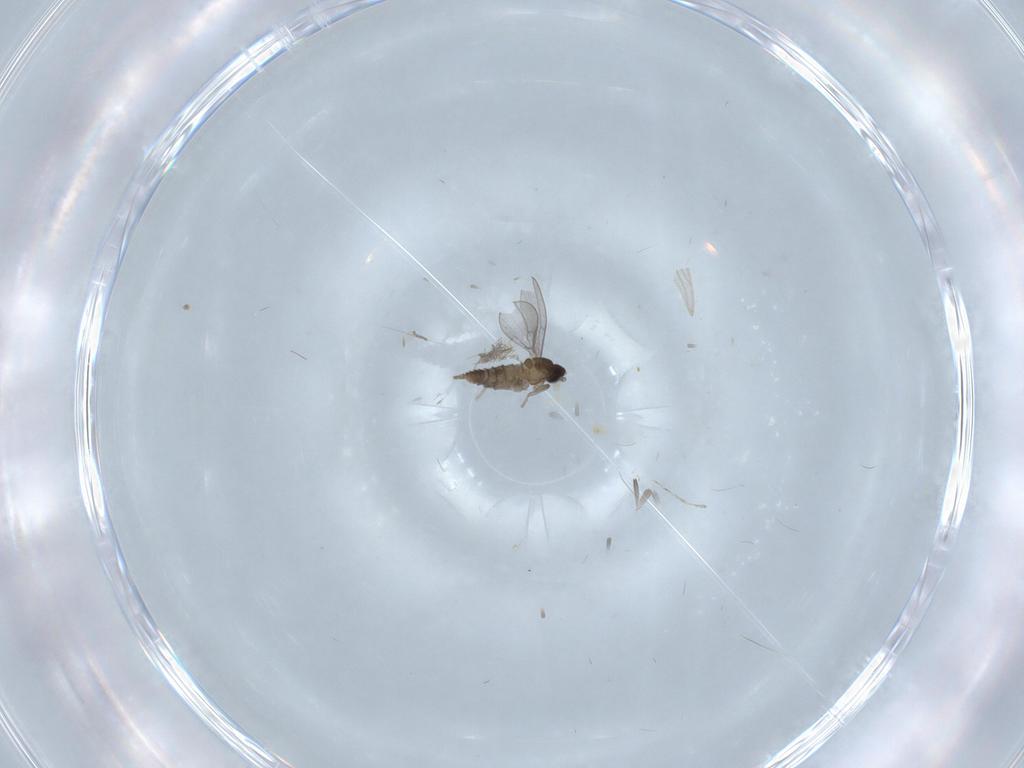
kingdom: Animalia
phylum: Arthropoda
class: Insecta
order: Diptera
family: Cecidomyiidae
